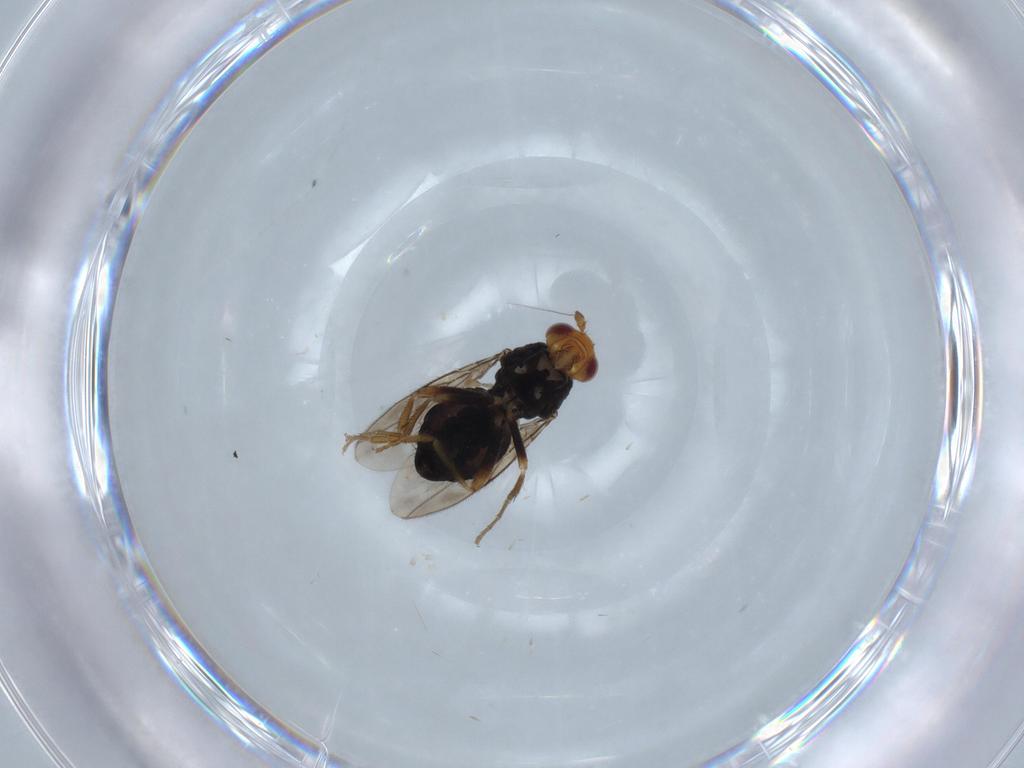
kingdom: Animalia
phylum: Arthropoda
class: Insecta
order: Diptera
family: Sphaeroceridae
